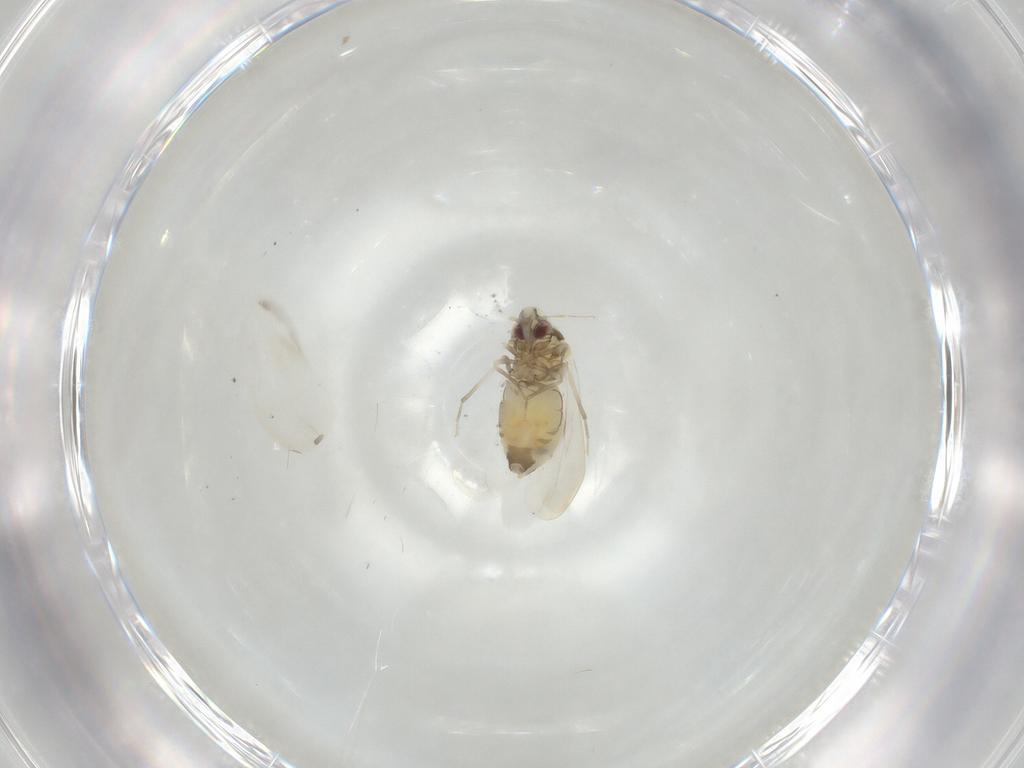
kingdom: Animalia
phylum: Arthropoda
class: Insecta
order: Hemiptera
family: Aleyrodidae
